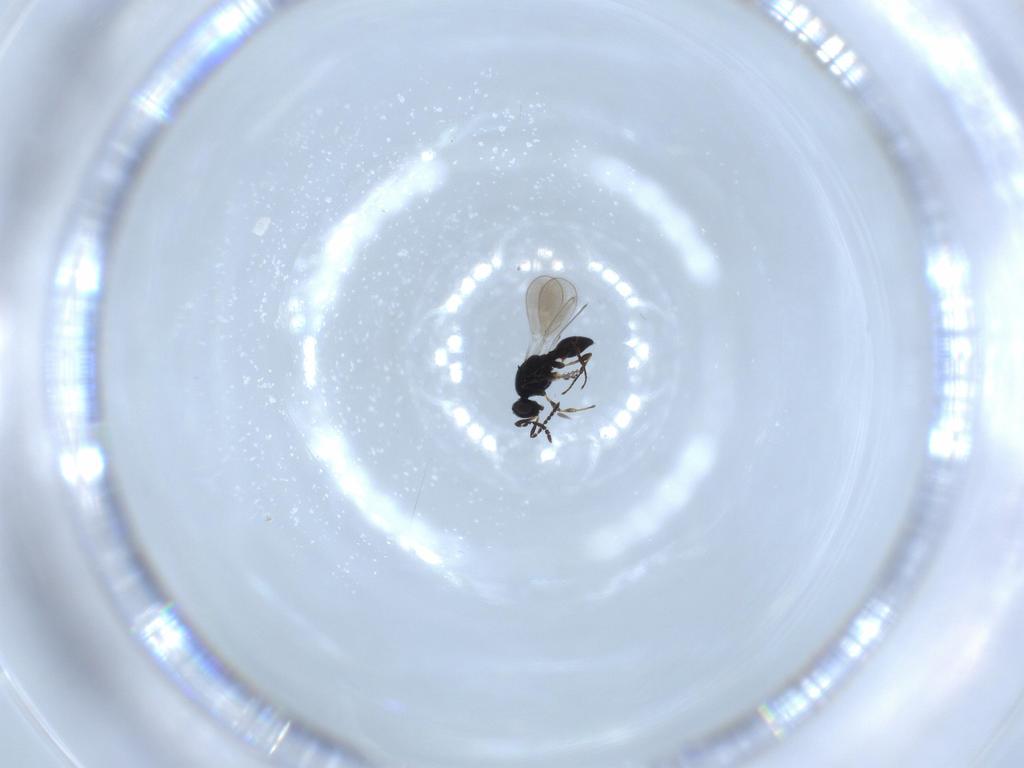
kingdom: Animalia
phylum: Arthropoda
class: Insecta
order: Hymenoptera
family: Platygastridae
